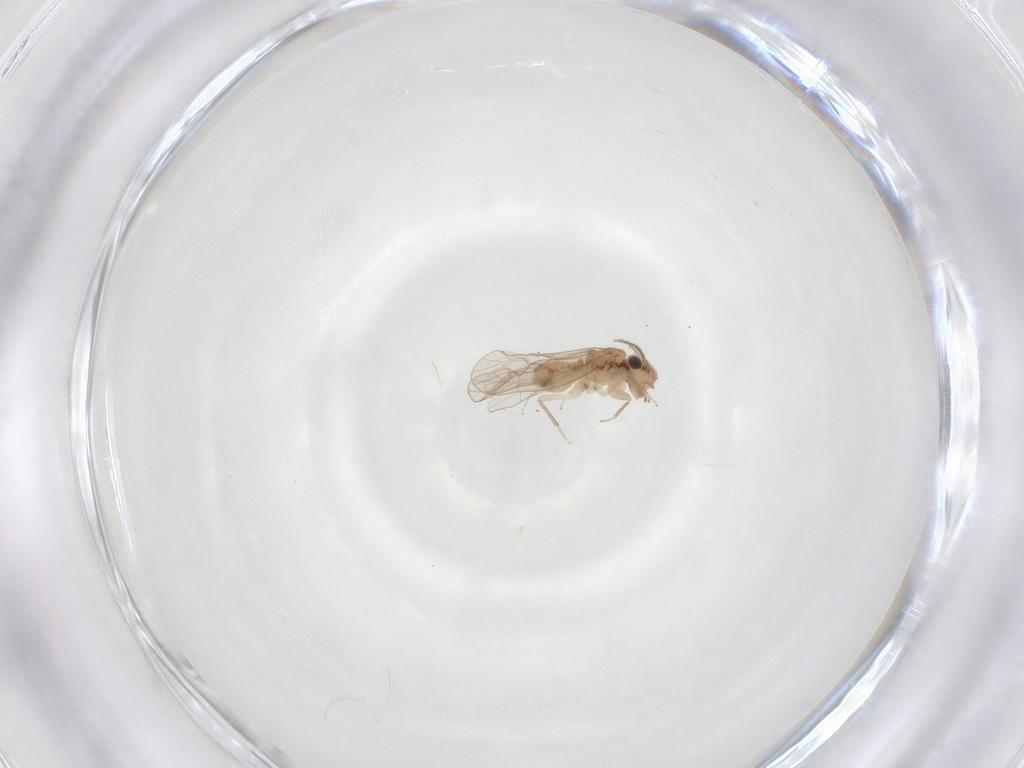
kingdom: Animalia
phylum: Arthropoda
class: Insecta
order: Psocodea
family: Ectopsocidae
